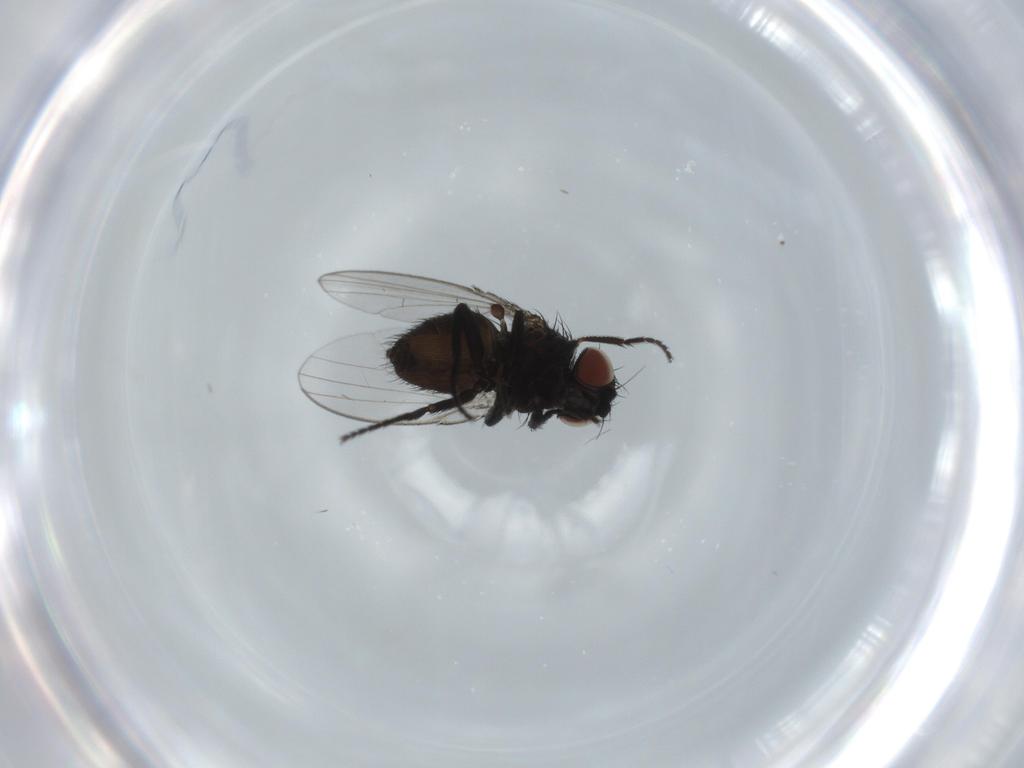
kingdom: Animalia
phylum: Arthropoda
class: Insecta
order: Diptera
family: Milichiidae
